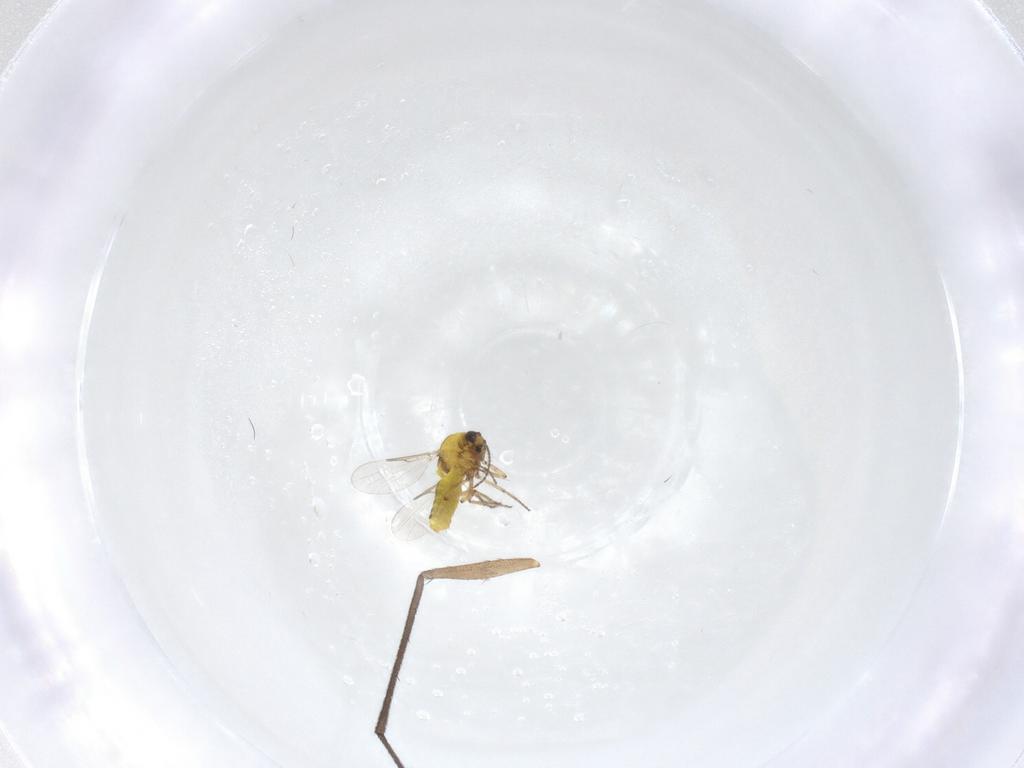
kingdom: Animalia
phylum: Arthropoda
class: Insecta
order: Diptera
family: Ceratopogonidae
